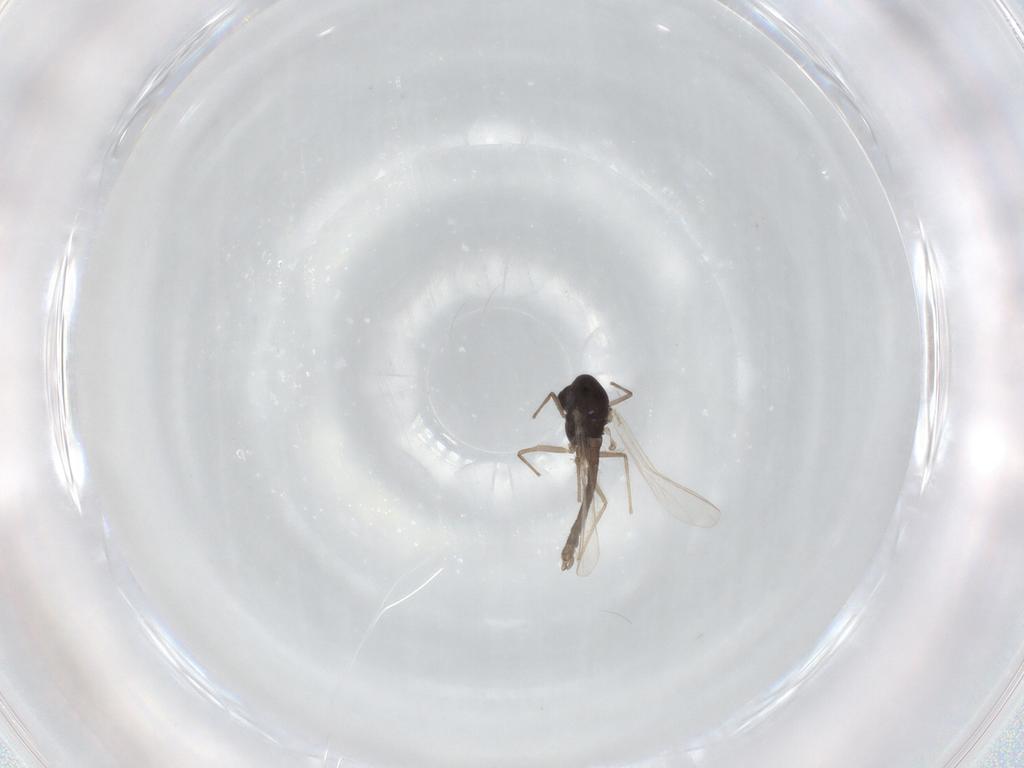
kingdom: Animalia
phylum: Arthropoda
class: Insecta
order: Diptera
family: Chironomidae
